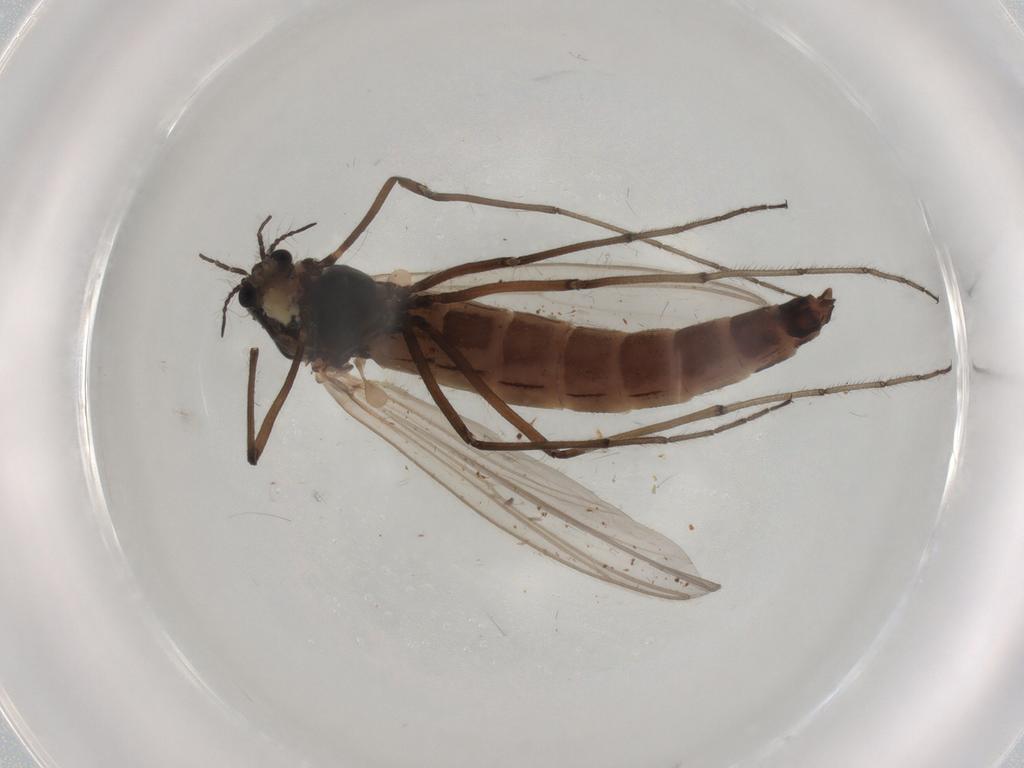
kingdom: Animalia
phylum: Arthropoda
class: Insecta
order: Diptera
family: Chironomidae
